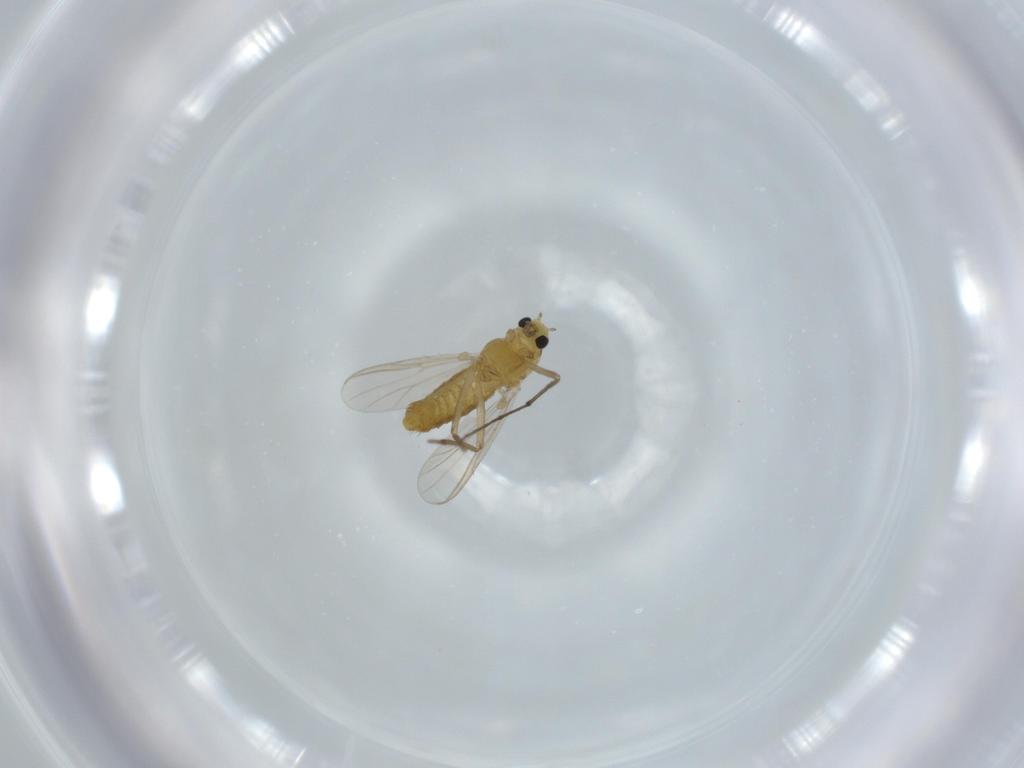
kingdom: Animalia
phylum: Arthropoda
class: Insecta
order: Diptera
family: Chironomidae
